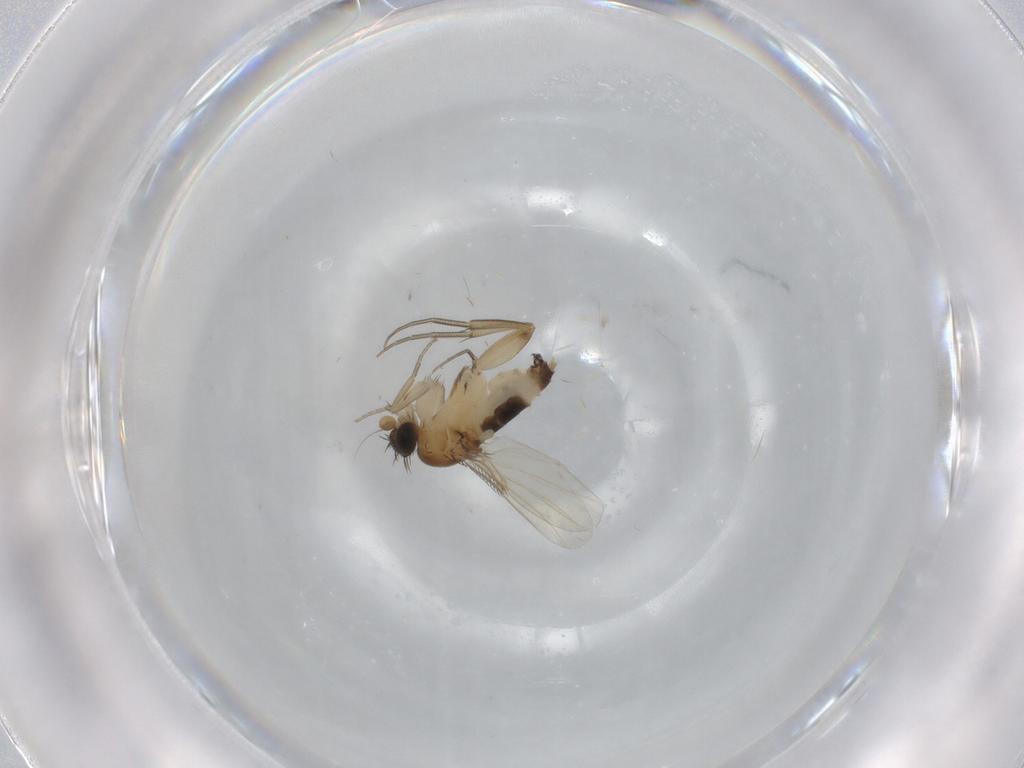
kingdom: Animalia
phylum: Arthropoda
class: Insecta
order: Diptera
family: Phoridae
